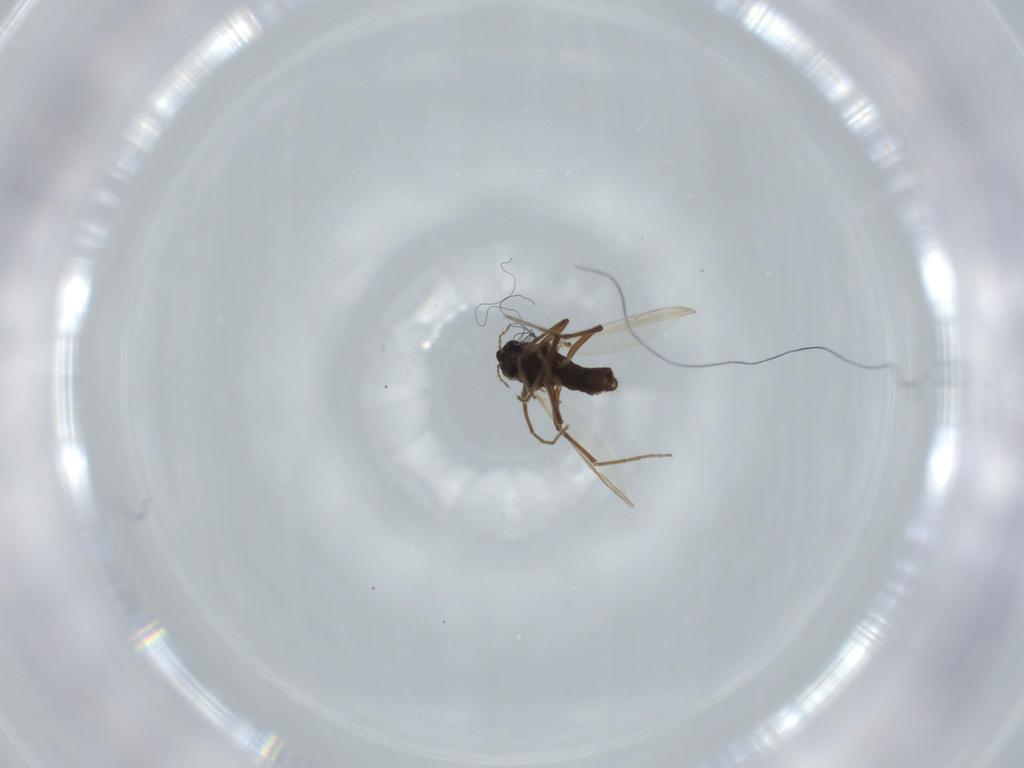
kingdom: Animalia
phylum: Arthropoda
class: Insecta
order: Diptera
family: Chironomidae
